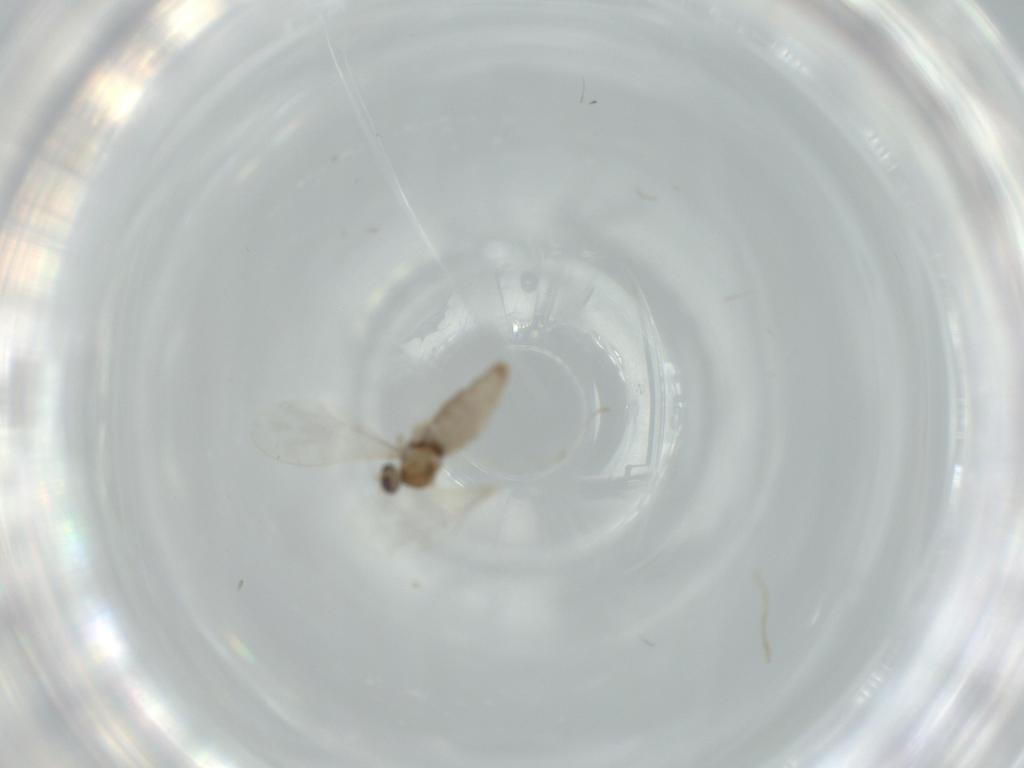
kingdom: Animalia
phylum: Arthropoda
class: Insecta
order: Diptera
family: Cecidomyiidae
